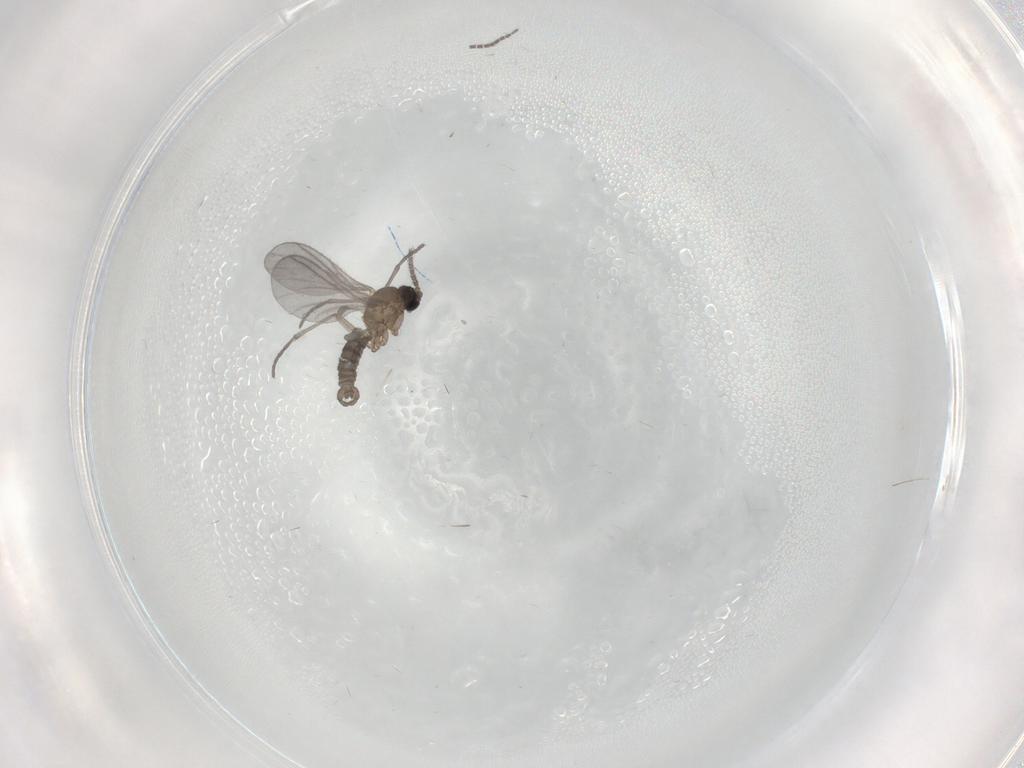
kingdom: Animalia
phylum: Arthropoda
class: Insecta
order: Diptera
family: Sciaridae
